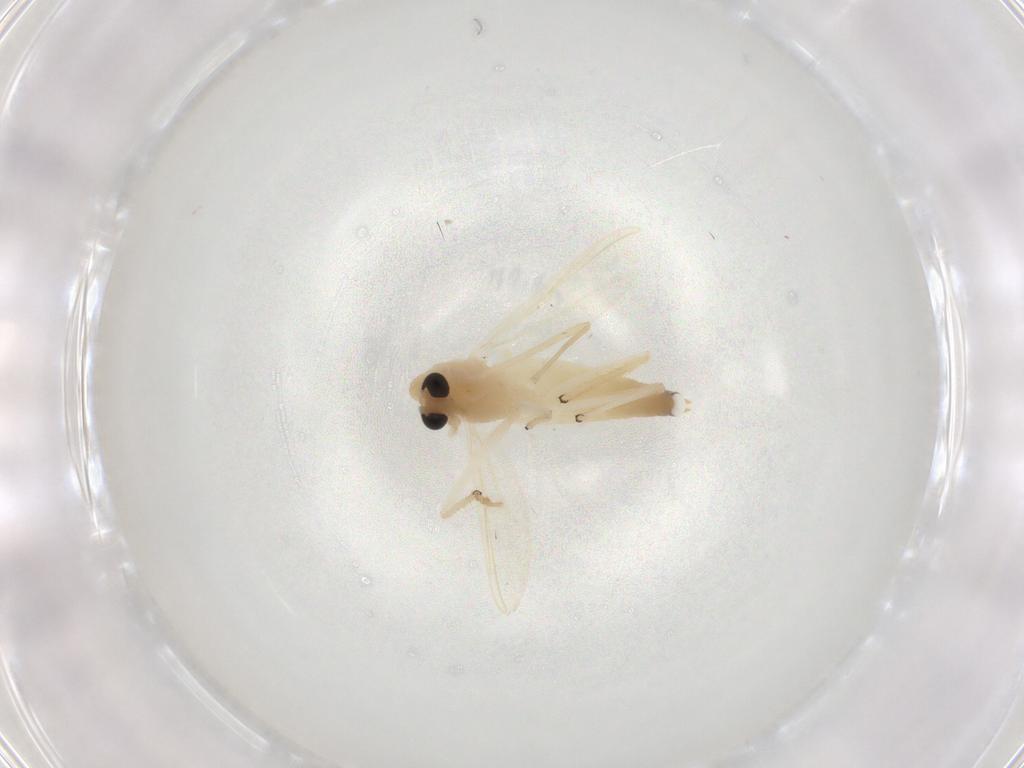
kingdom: Animalia
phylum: Arthropoda
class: Insecta
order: Diptera
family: Chironomidae
